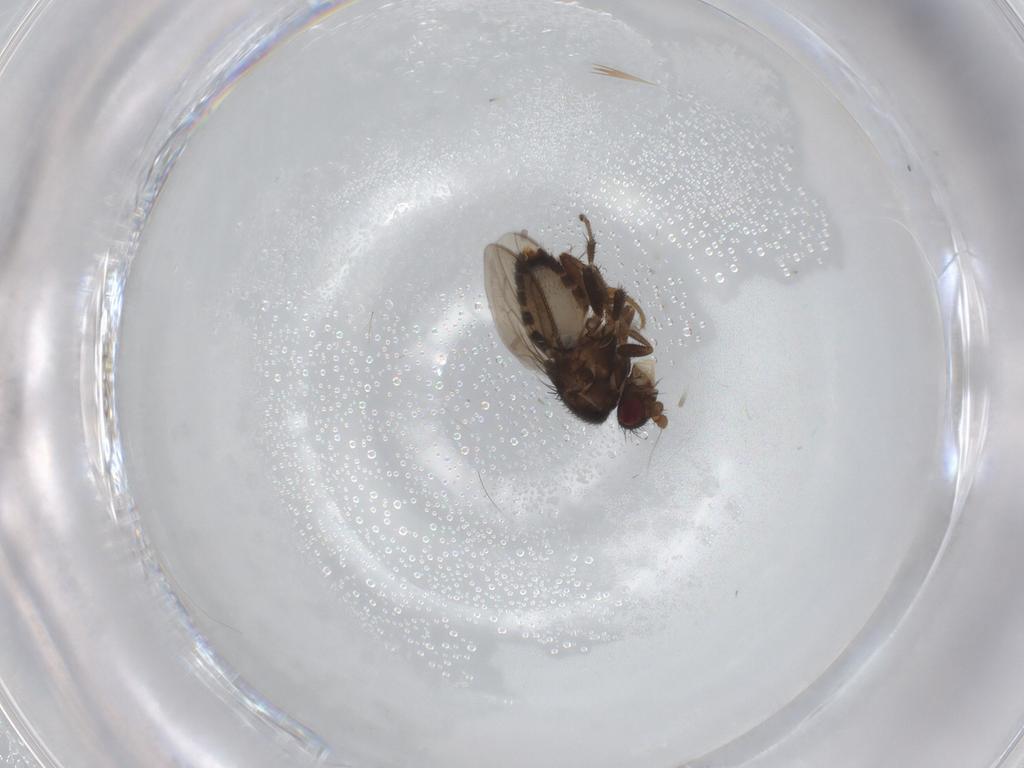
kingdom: Animalia
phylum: Arthropoda
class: Insecta
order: Diptera
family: Sphaeroceridae
